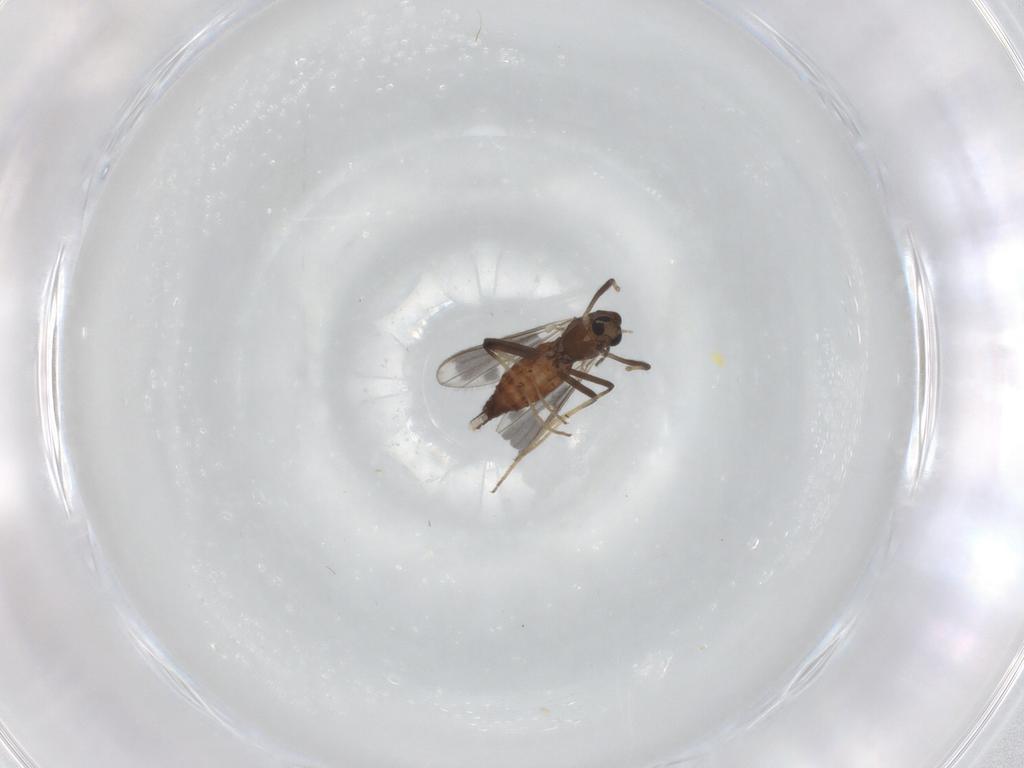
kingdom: Animalia
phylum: Arthropoda
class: Insecta
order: Diptera
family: Chironomidae
